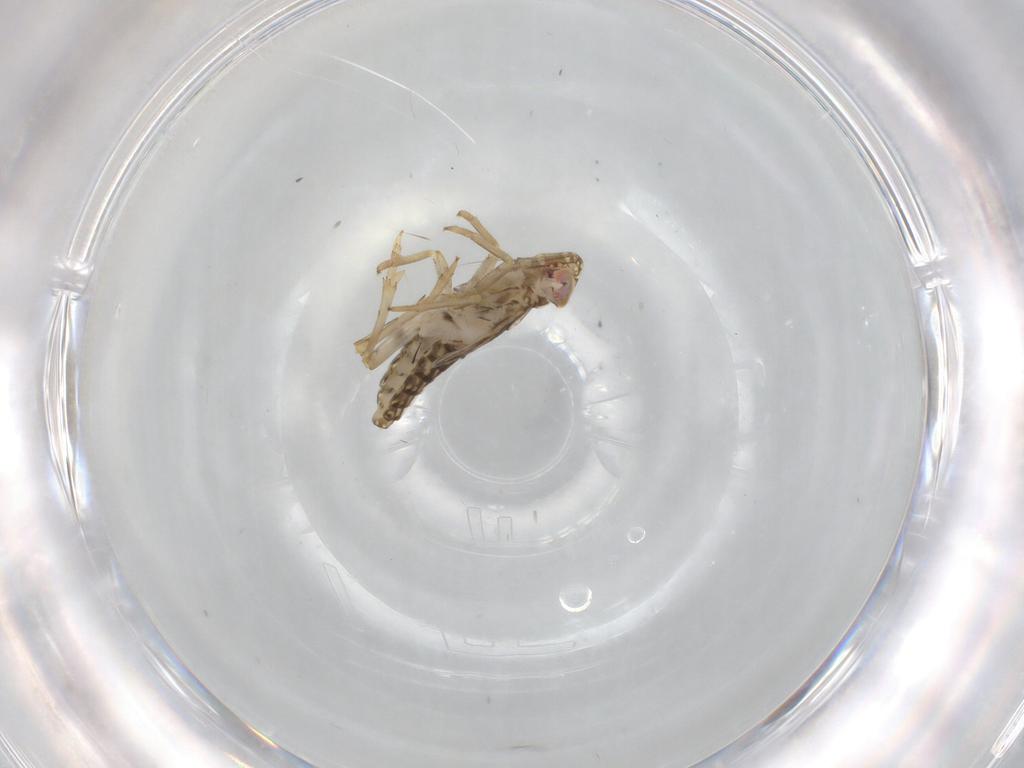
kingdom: Animalia
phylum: Arthropoda
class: Insecta
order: Hemiptera
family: Delphacidae
